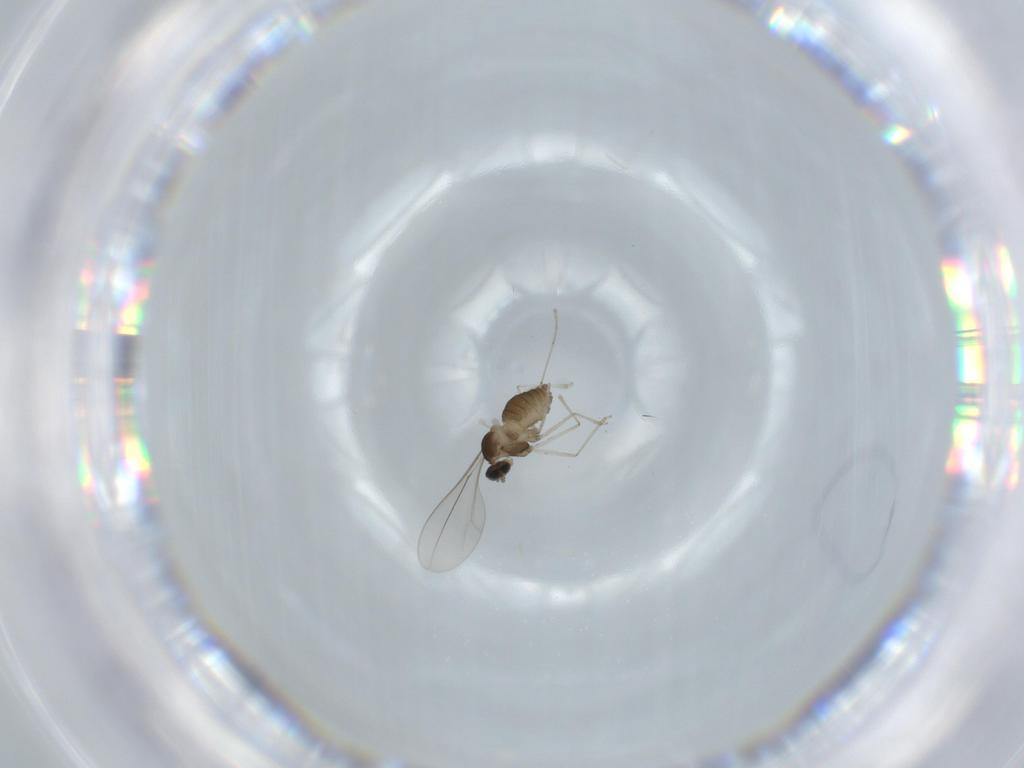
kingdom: Animalia
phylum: Arthropoda
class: Insecta
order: Diptera
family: Cecidomyiidae
